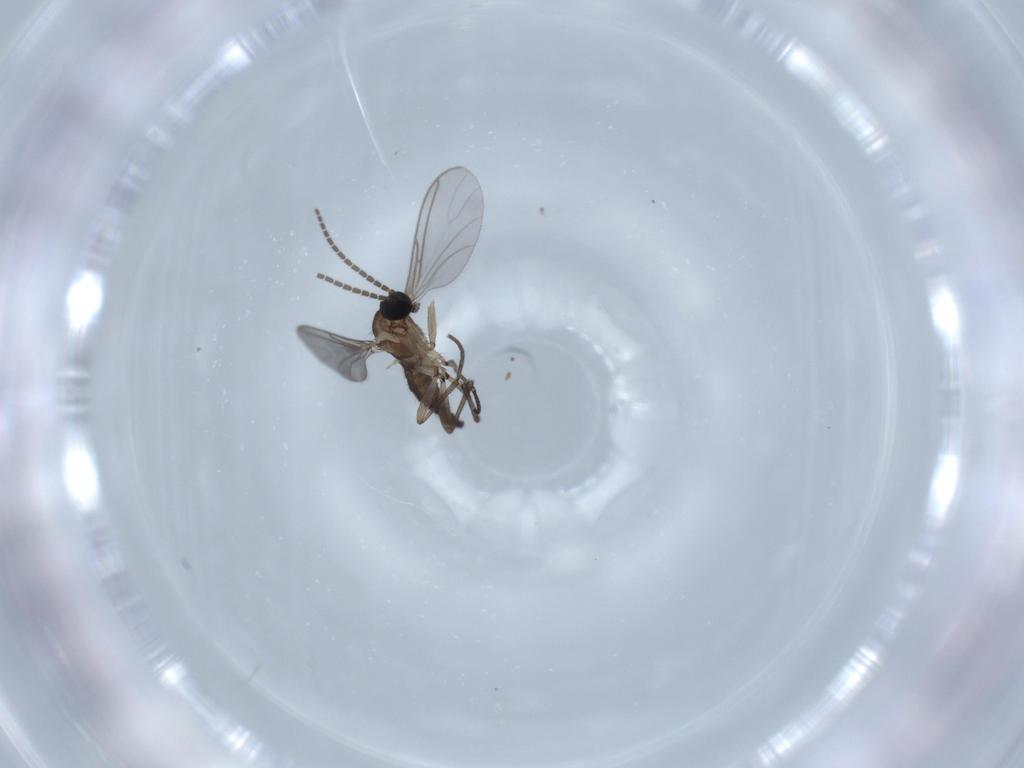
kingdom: Animalia
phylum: Arthropoda
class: Insecta
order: Diptera
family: Sciaridae
